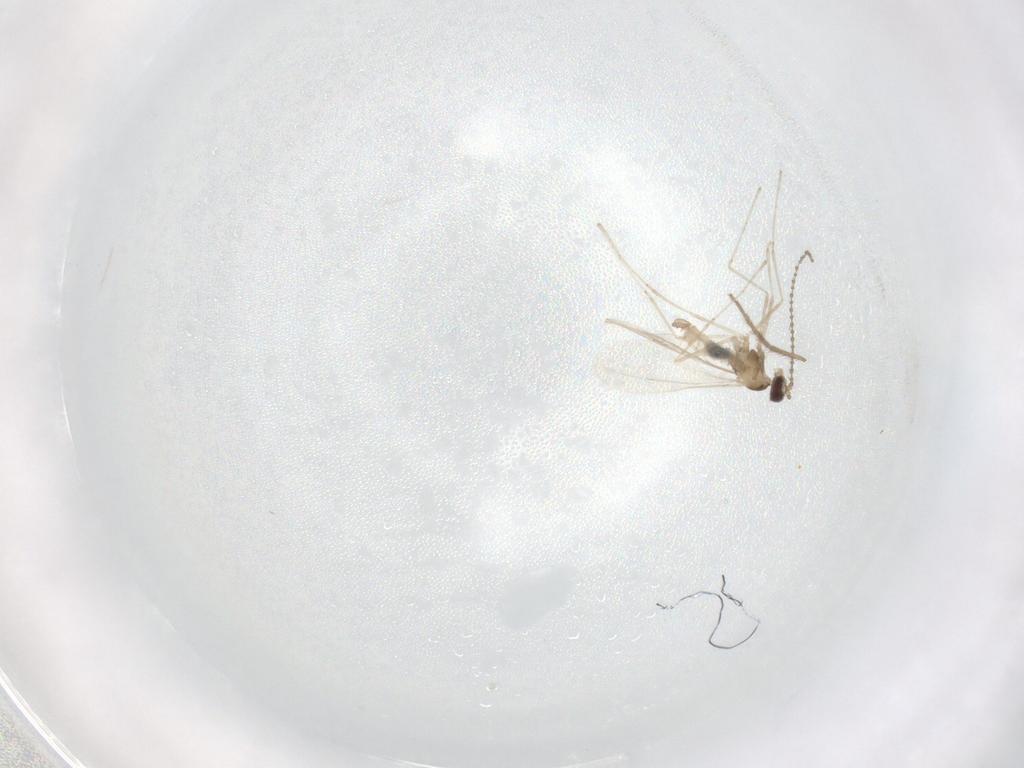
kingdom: Animalia
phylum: Arthropoda
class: Insecta
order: Diptera
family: Cecidomyiidae
